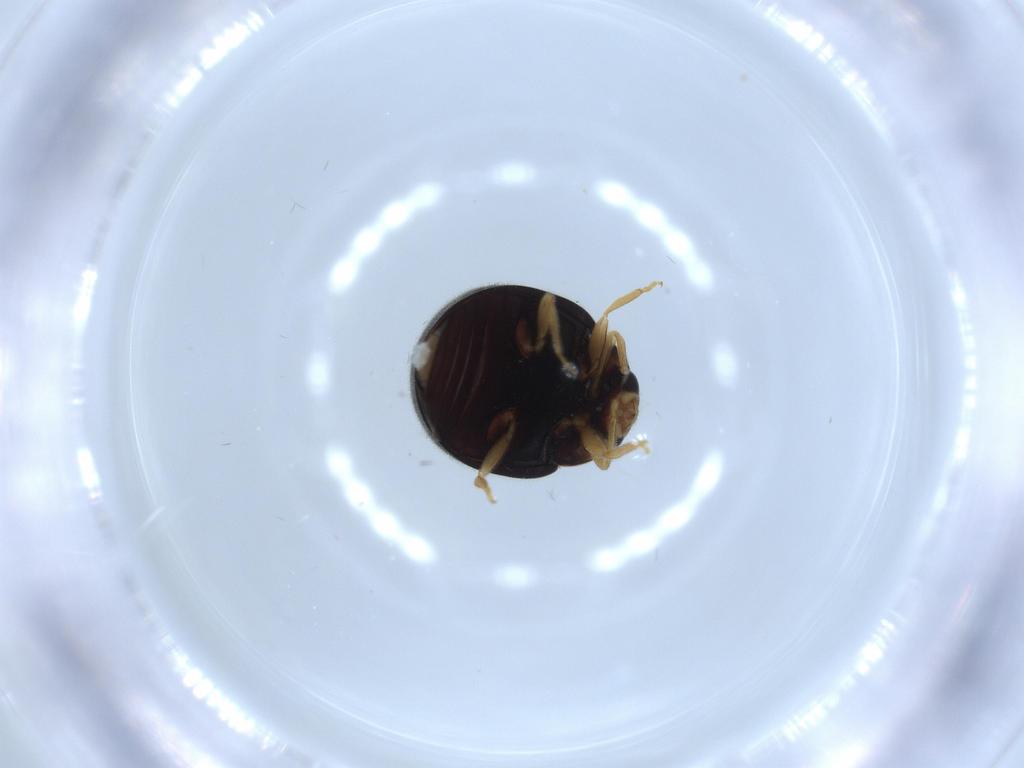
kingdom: Animalia
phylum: Arthropoda
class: Insecta
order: Coleoptera
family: Coccinellidae
